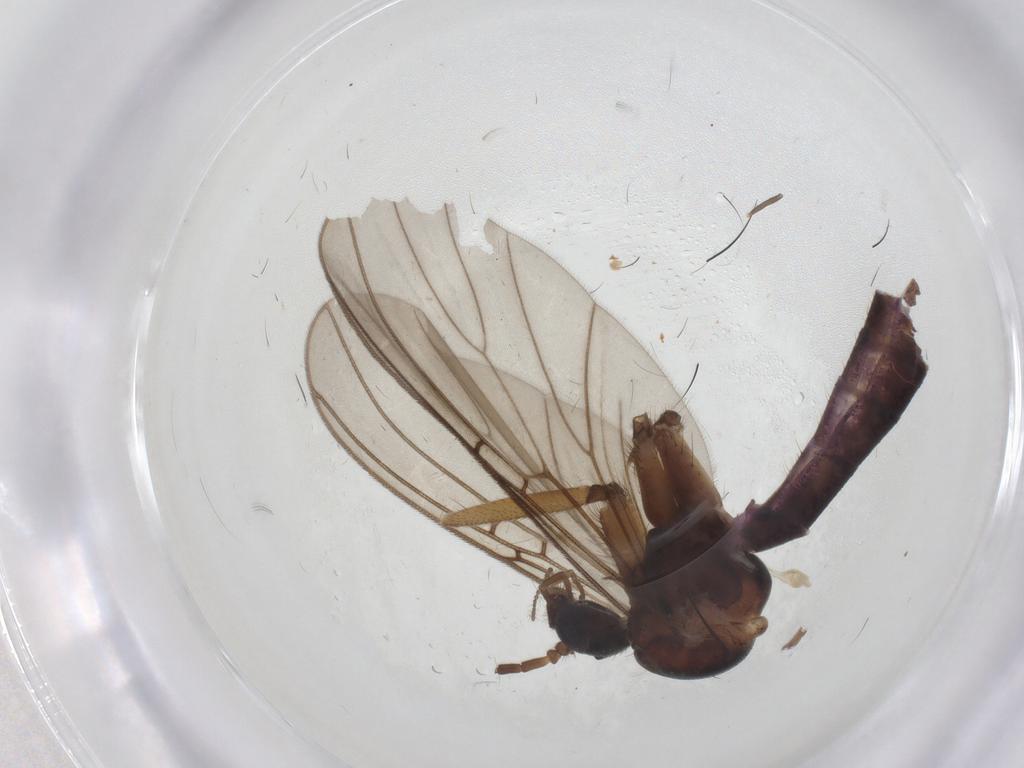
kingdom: Animalia
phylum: Arthropoda
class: Insecta
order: Diptera
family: Mycetophilidae
